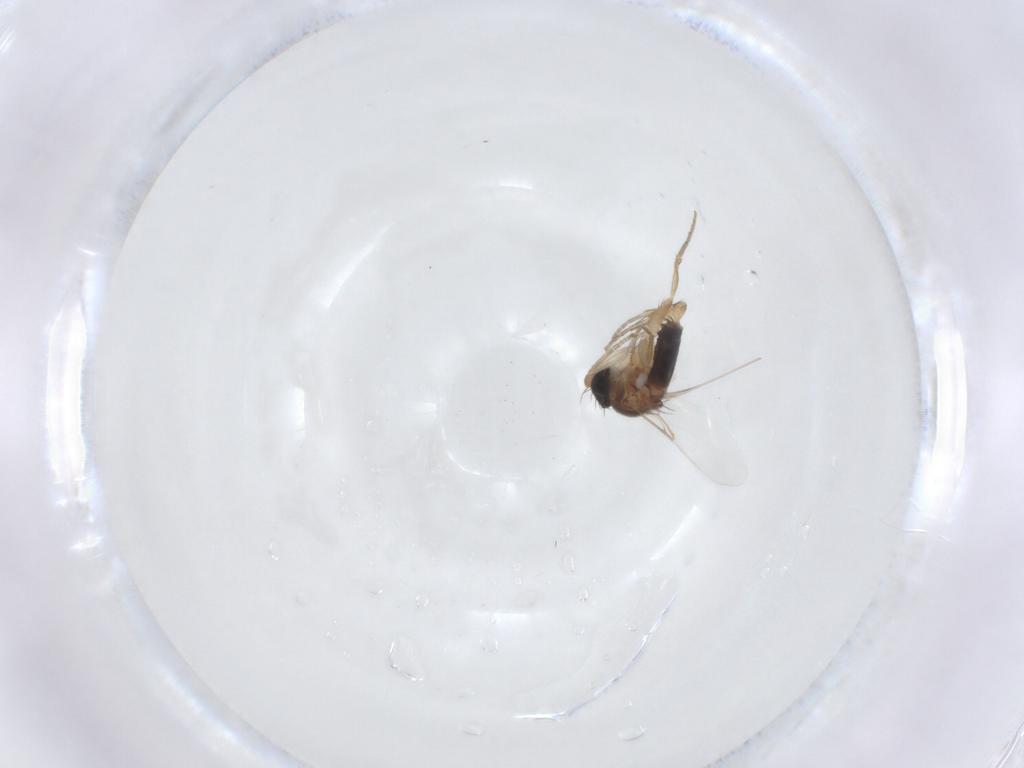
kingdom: Animalia
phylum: Arthropoda
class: Insecta
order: Diptera
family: Phoridae
